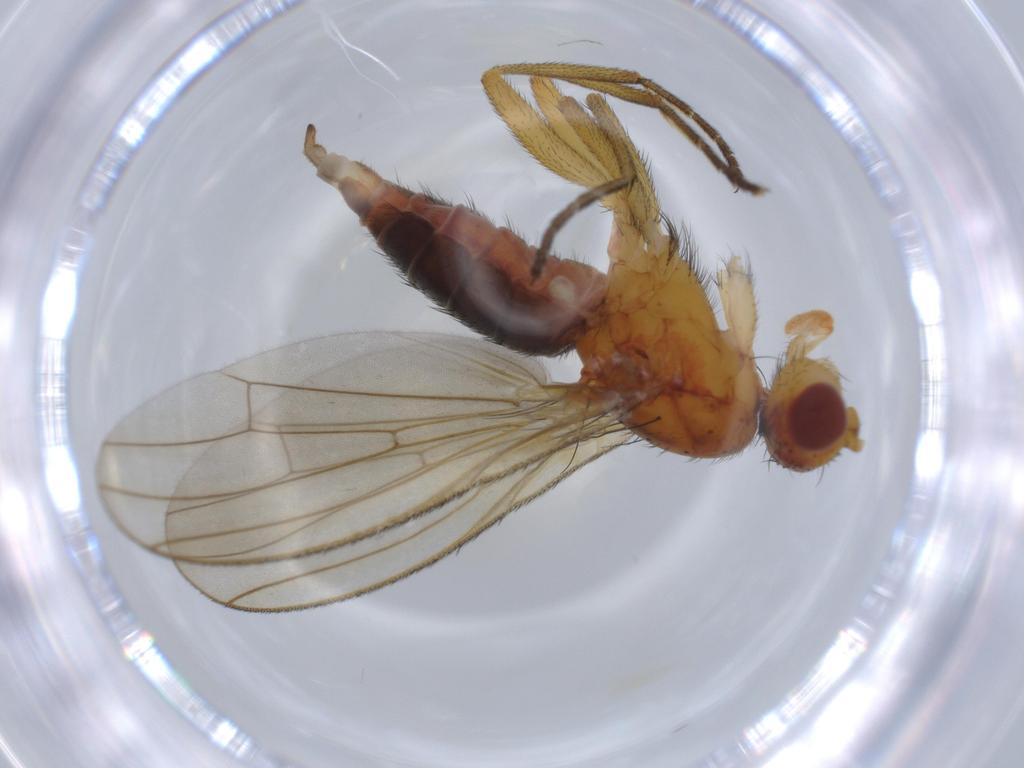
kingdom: Animalia
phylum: Arthropoda
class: Insecta
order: Diptera
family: Heleomyzidae
